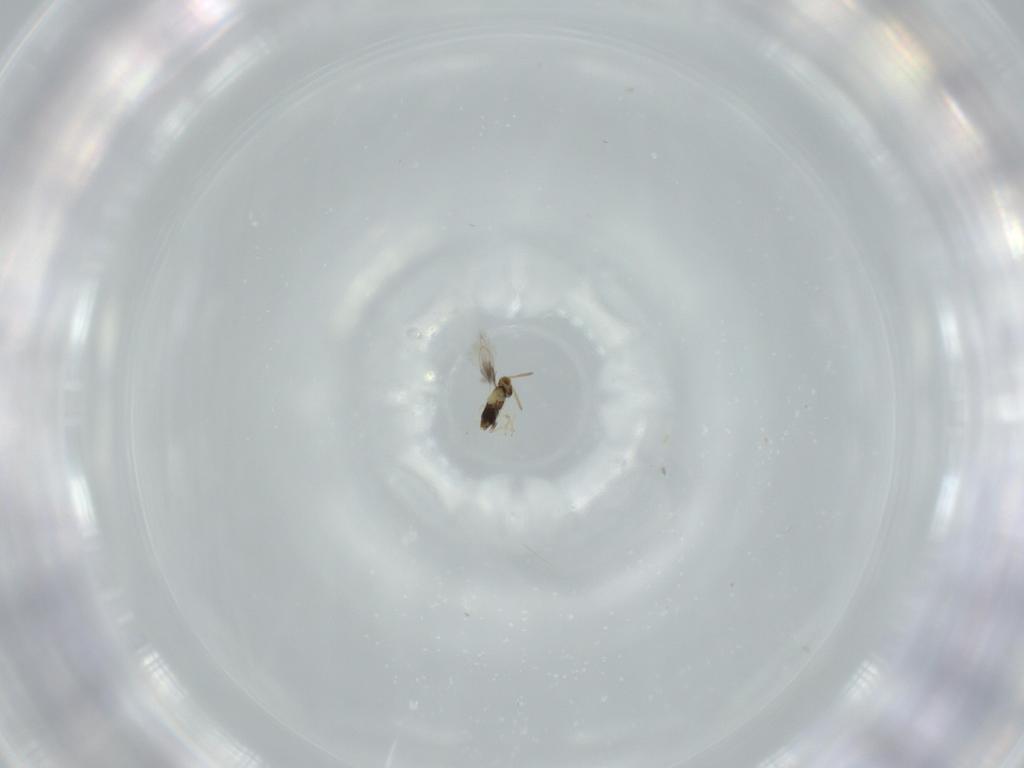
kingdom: Animalia
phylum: Arthropoda
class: Insecta
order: Hymenoptera
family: Aphelinidae
